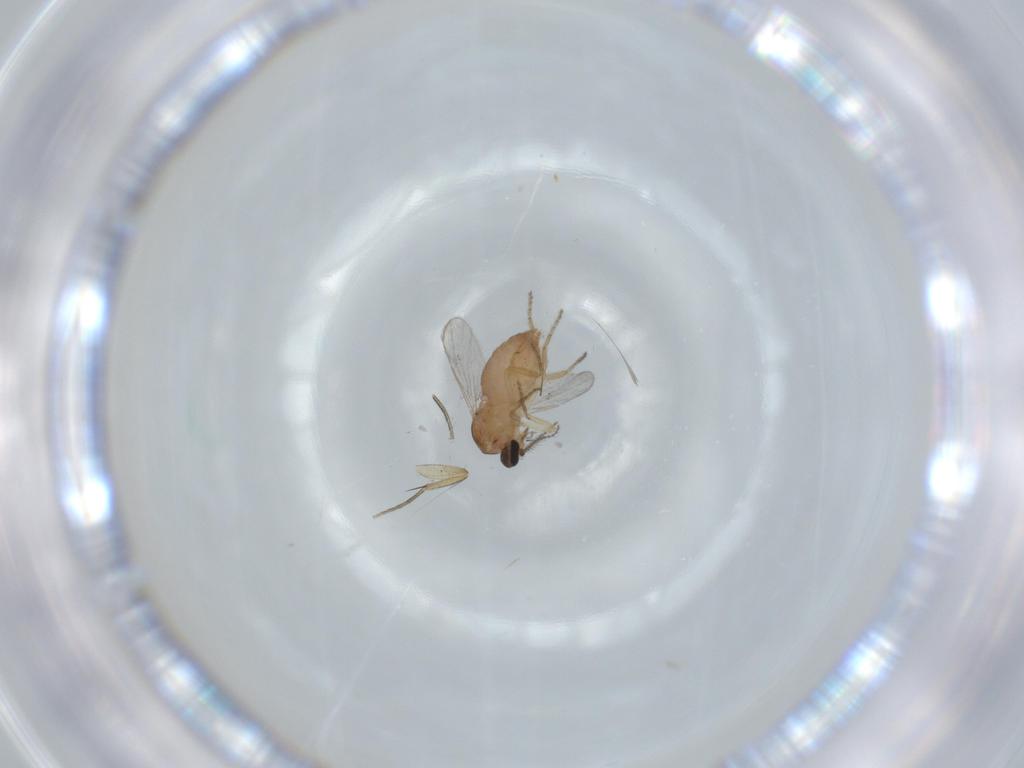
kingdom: Animalia
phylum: Arthropoda
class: Insecta
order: Diptera
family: Ceratopogonidae
